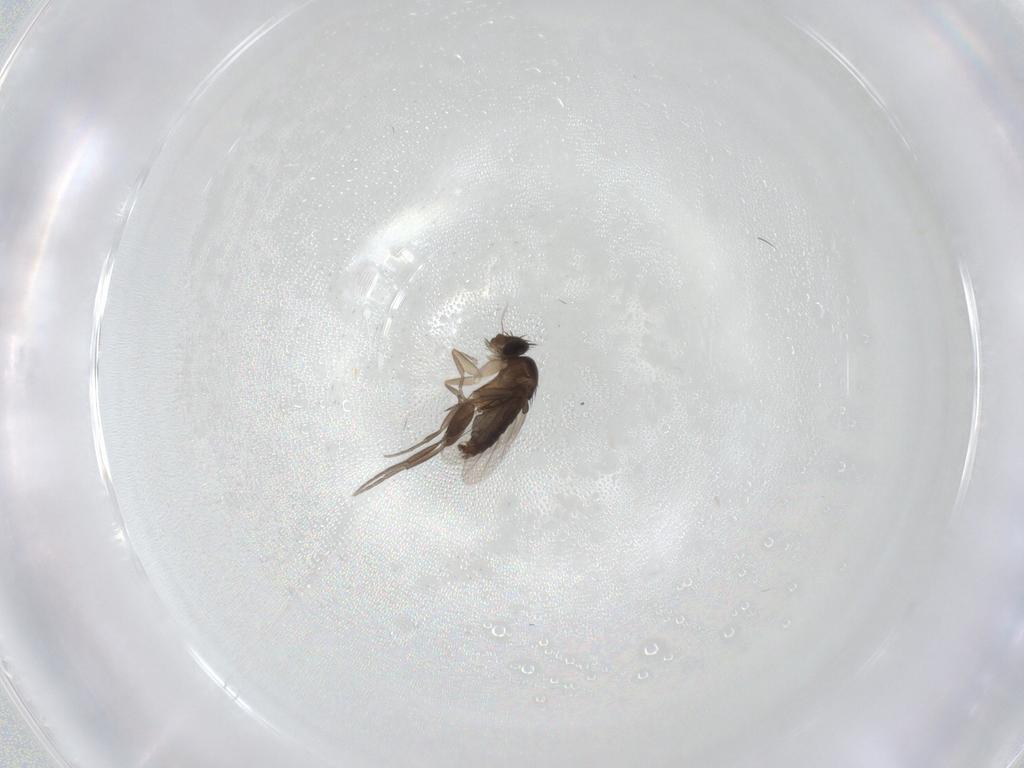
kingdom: Animalia
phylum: Arthropoda
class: Insecta
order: Diptera
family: Phoridae
